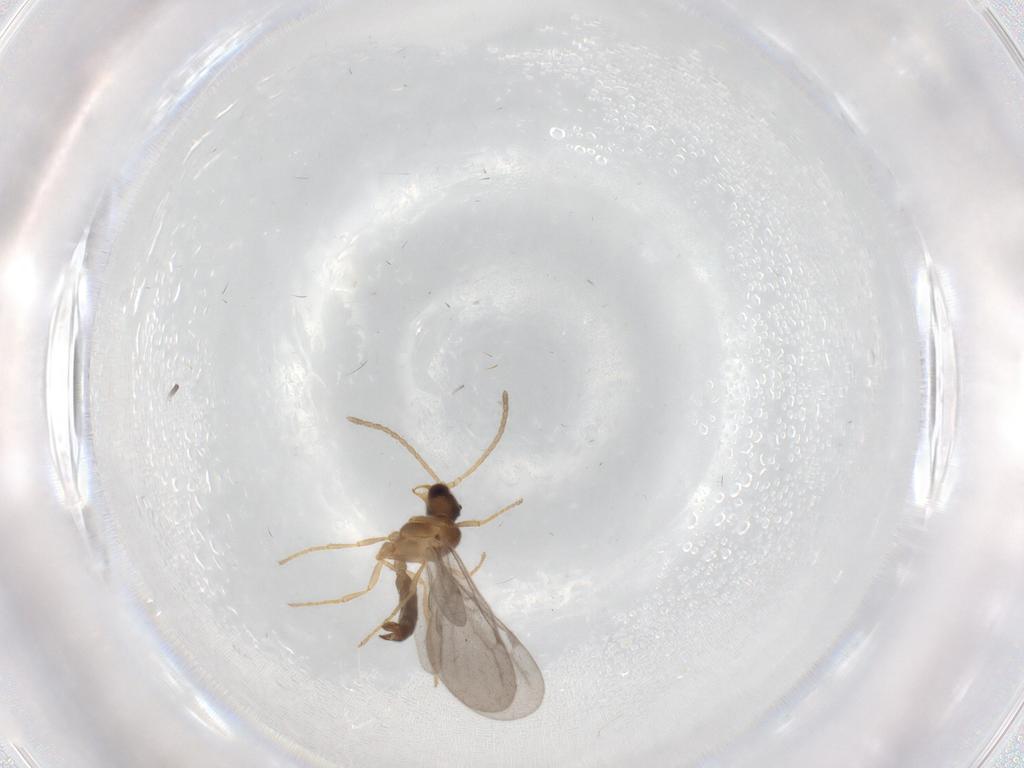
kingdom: Animalia
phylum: Arthropoda
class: Insecta
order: Hymenoptera
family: Formicidae
